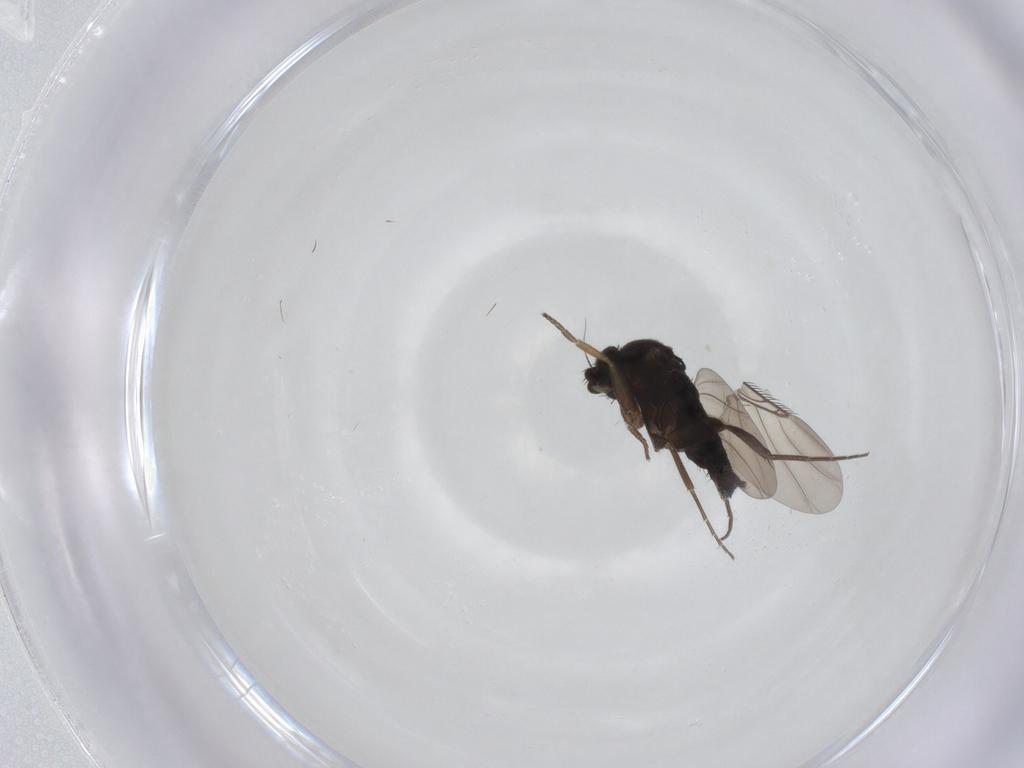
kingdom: Animalia
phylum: Arthropoda
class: Insecta
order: Diptera
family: Phoridae
